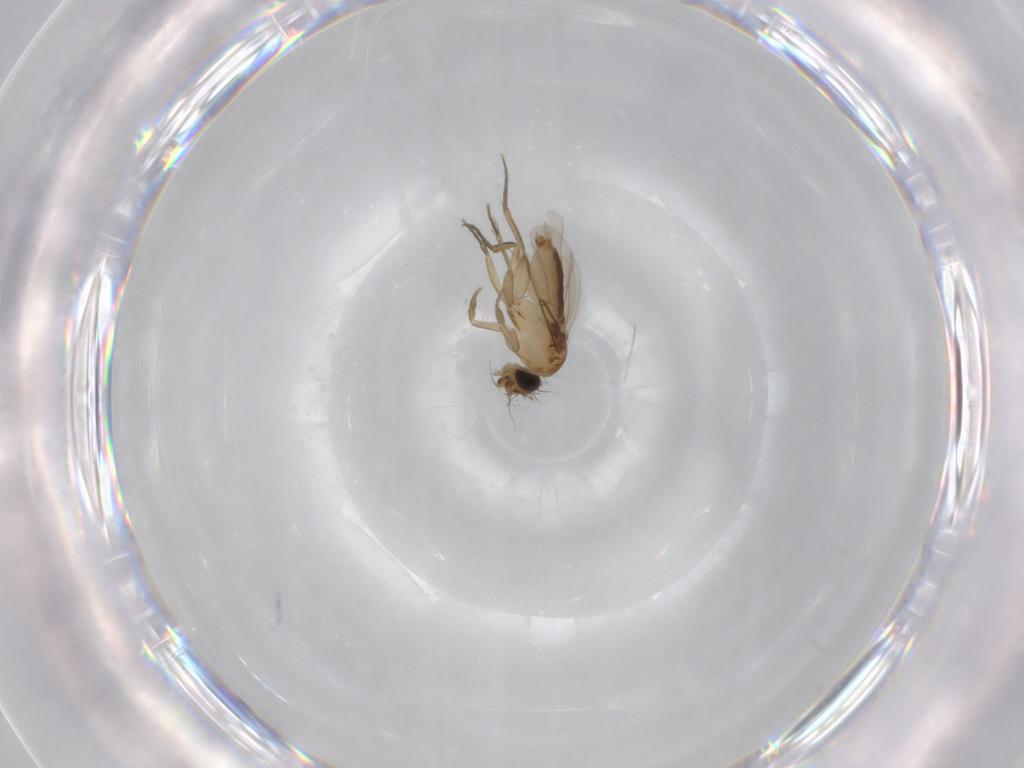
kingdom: Animalia
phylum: Arthropoda
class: Insecta
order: Diptera
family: Phoridae
